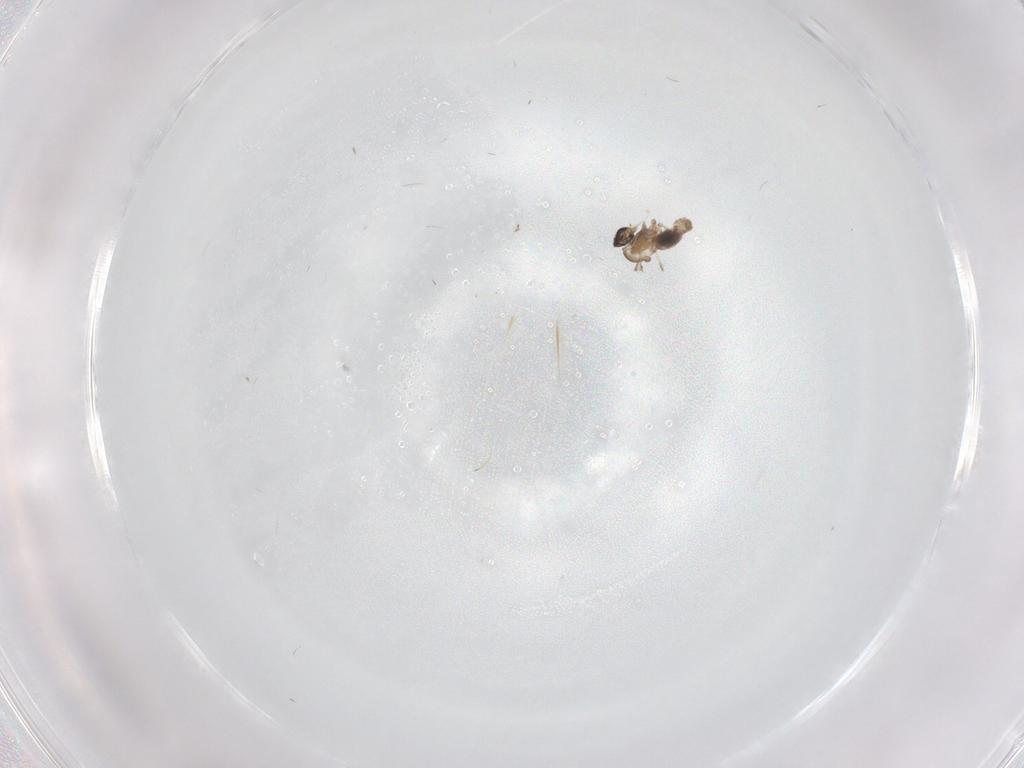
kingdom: Animalia
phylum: Arthropoda
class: Insecta
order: Diptera
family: Cecidomyiidae
